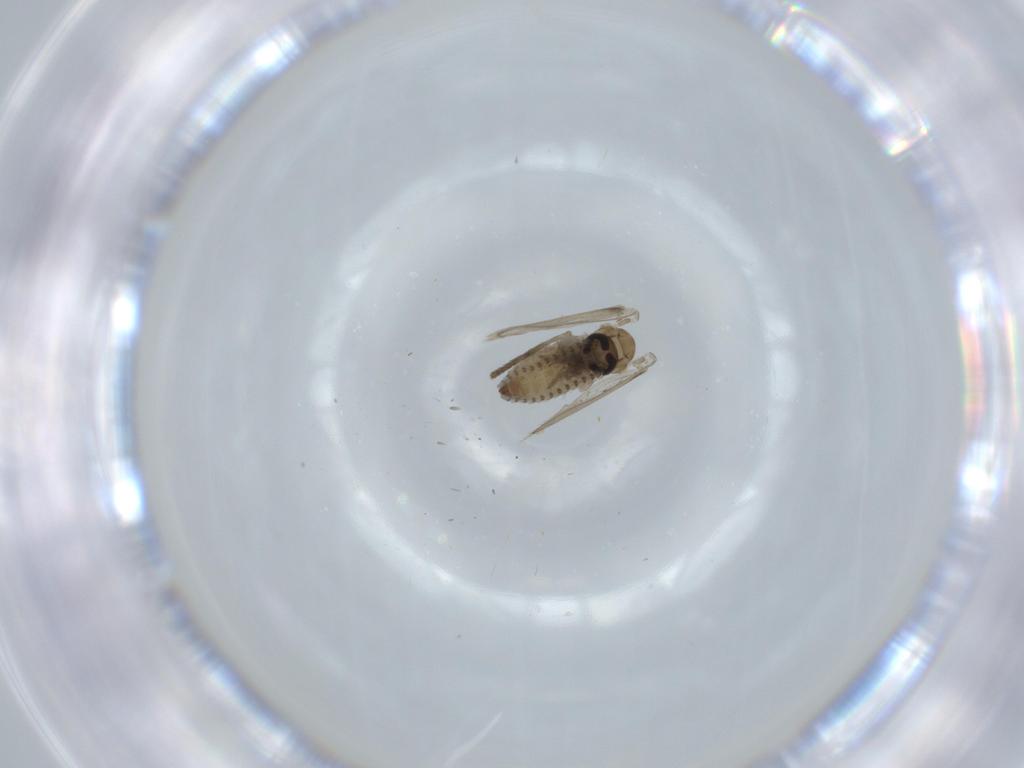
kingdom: Animalia
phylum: Arthropoda
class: Insecta
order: Diptera
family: Psychodidae
